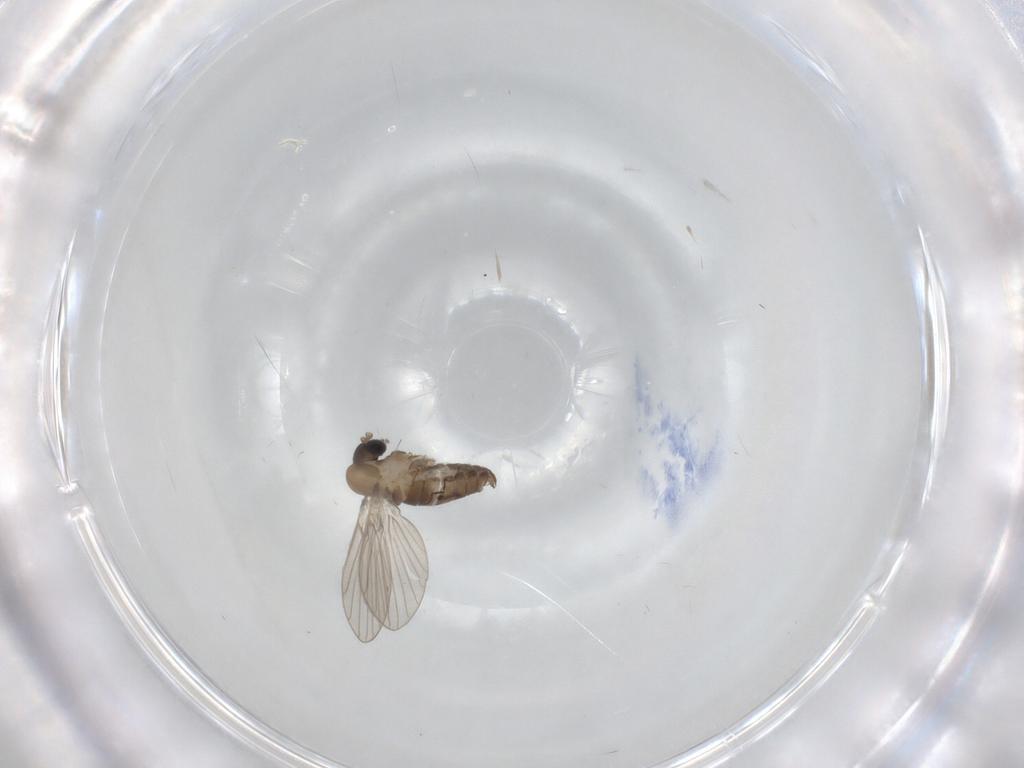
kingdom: Animalia
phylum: Arthropoda
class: Insecta
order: Diptera
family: Psychodidae
